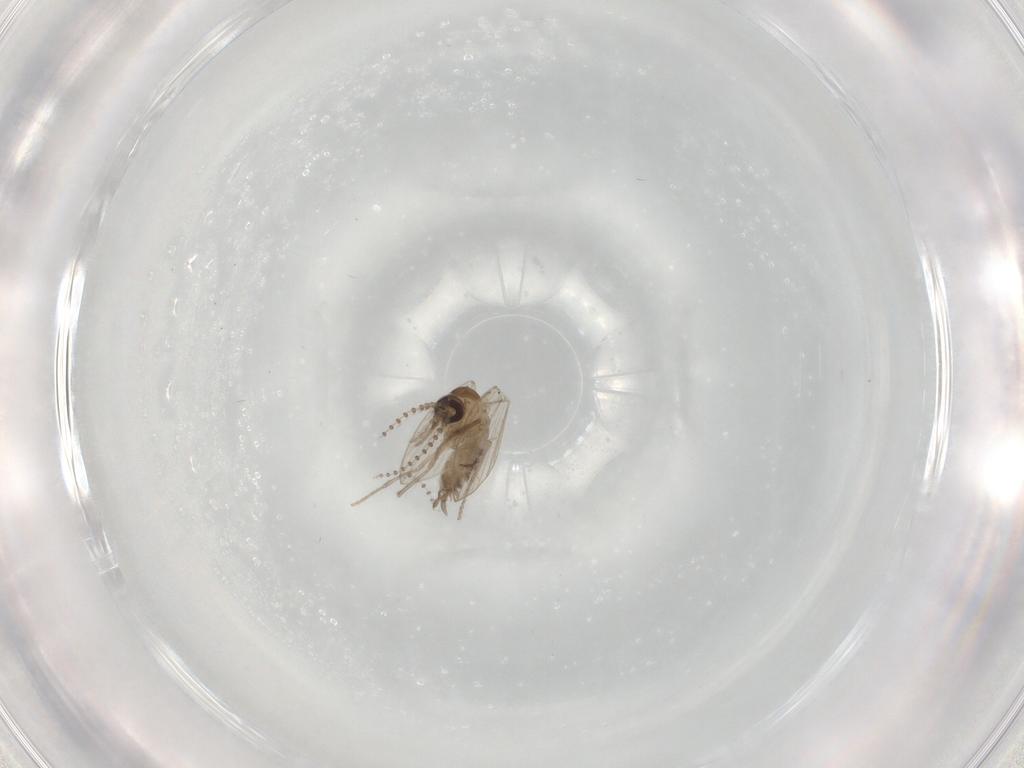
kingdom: Animalia
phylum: Arthropoda
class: Insecta
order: Diptera
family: Psychodidae
